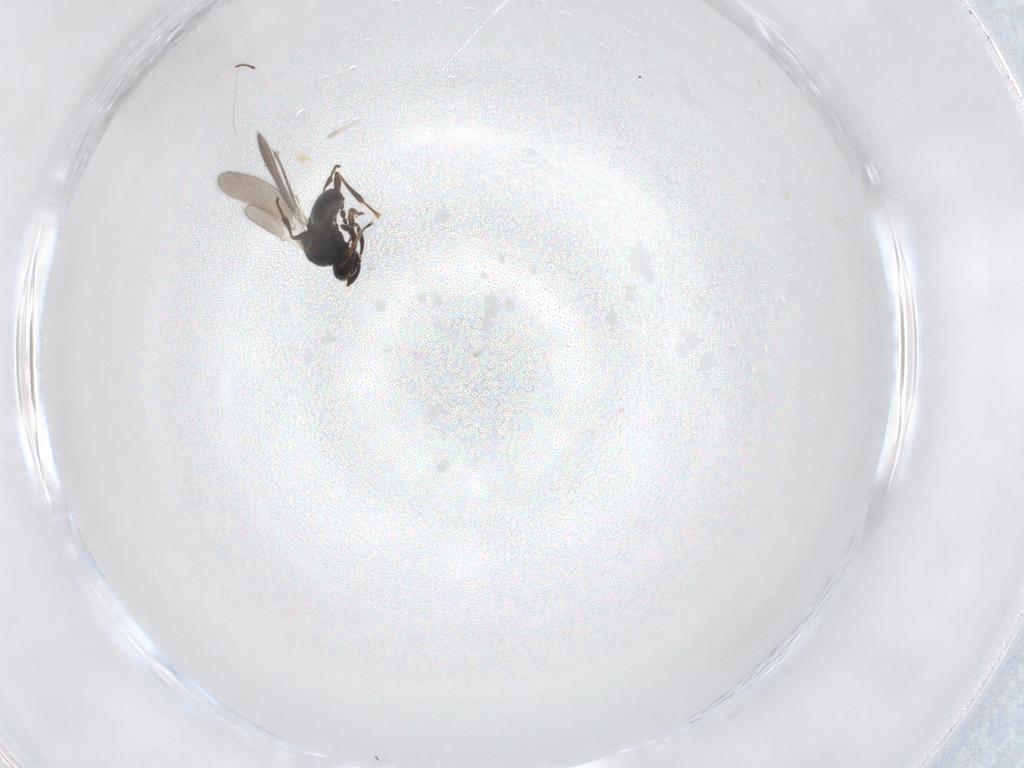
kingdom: Animalia
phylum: Arthropoda
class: Insecta
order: Hymenoptera
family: Platygastridae
